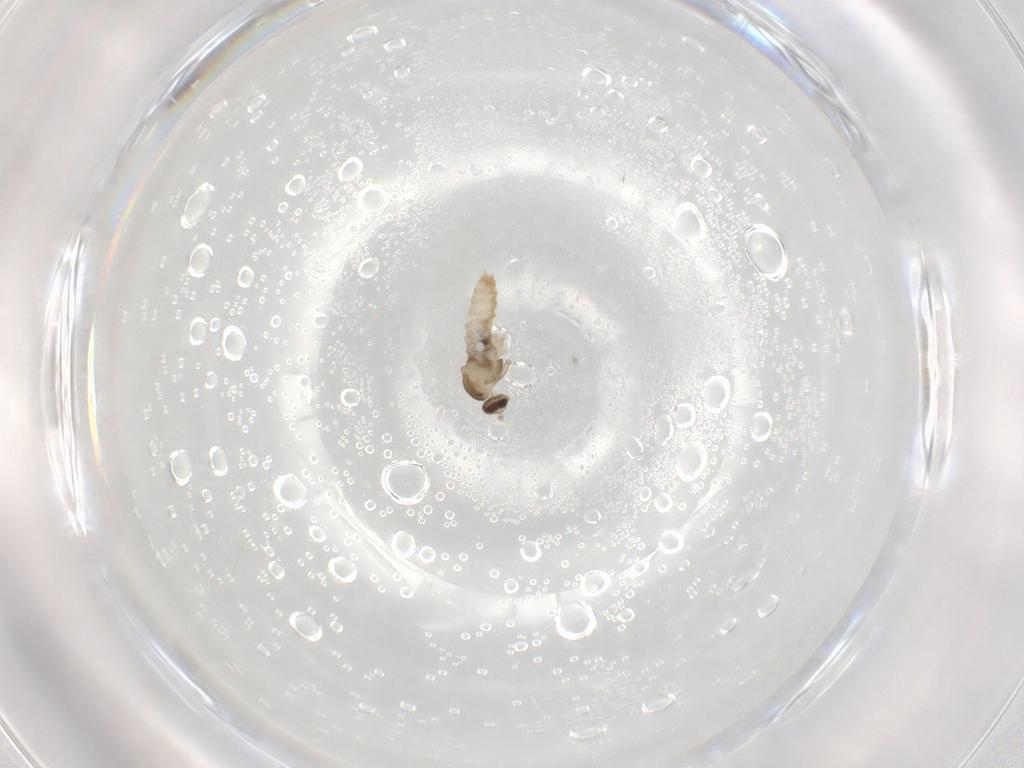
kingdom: Animalia
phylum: Arthropoda
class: Insecta
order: Diptera
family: Cecidomyiidae
